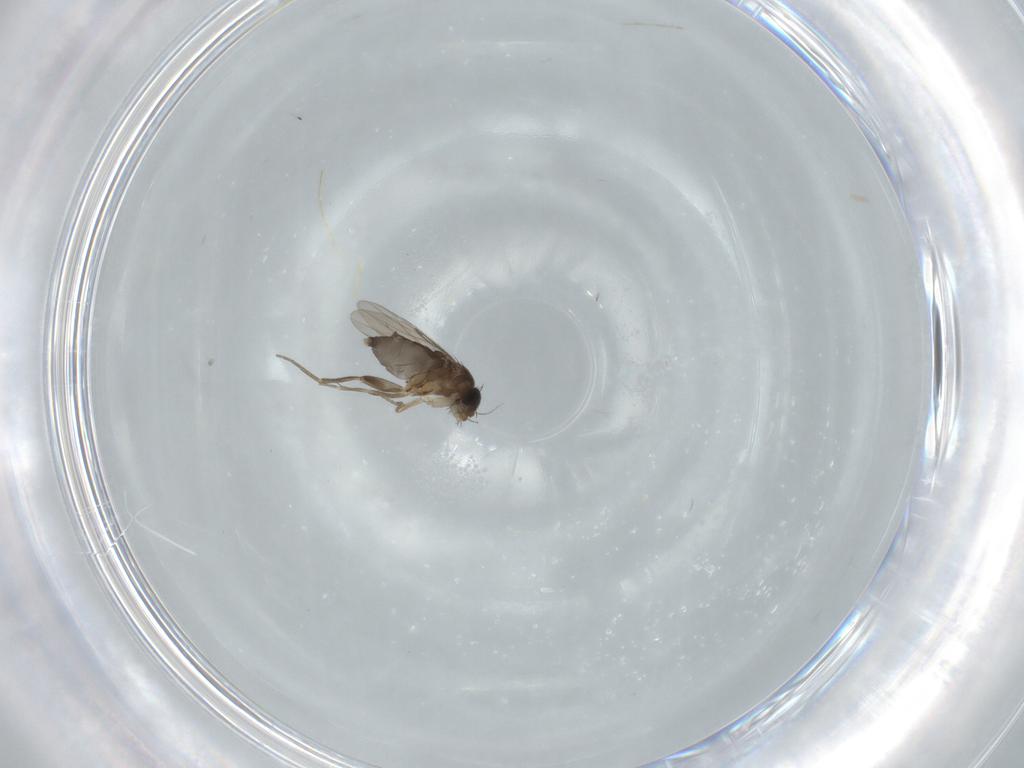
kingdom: Animalia
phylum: Arthropoda
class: Insecta
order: Diptera
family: Phoridae
